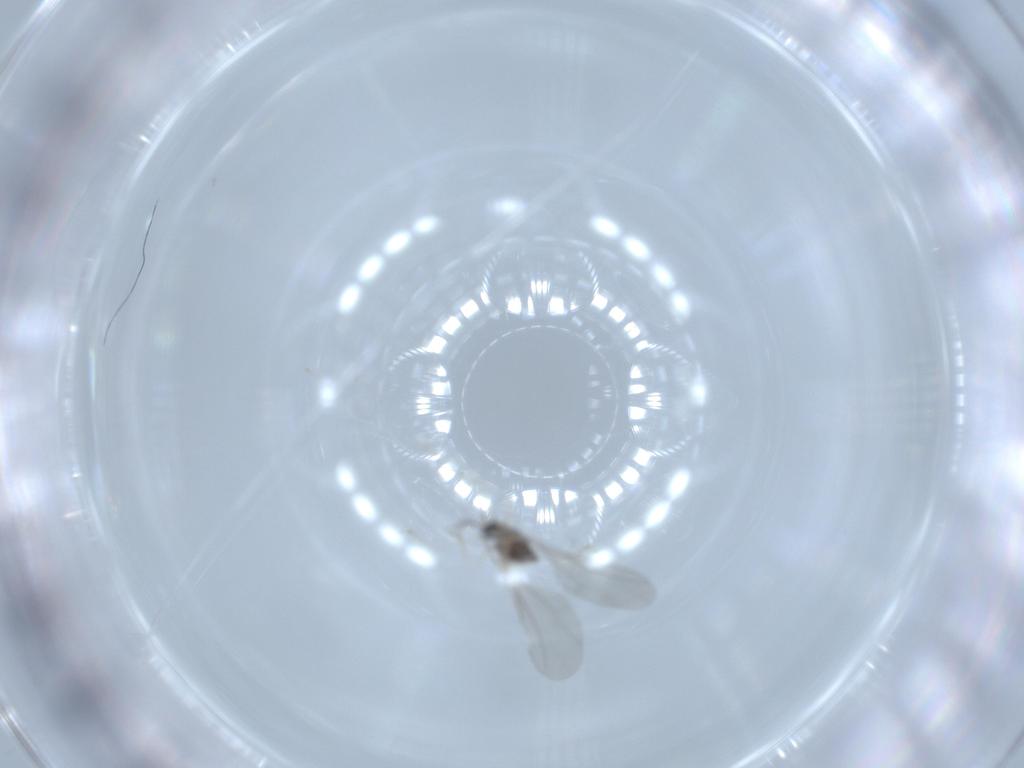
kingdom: Animalia
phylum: Arthropoda
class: Insecta
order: Diptera
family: Cecidomyiidae
